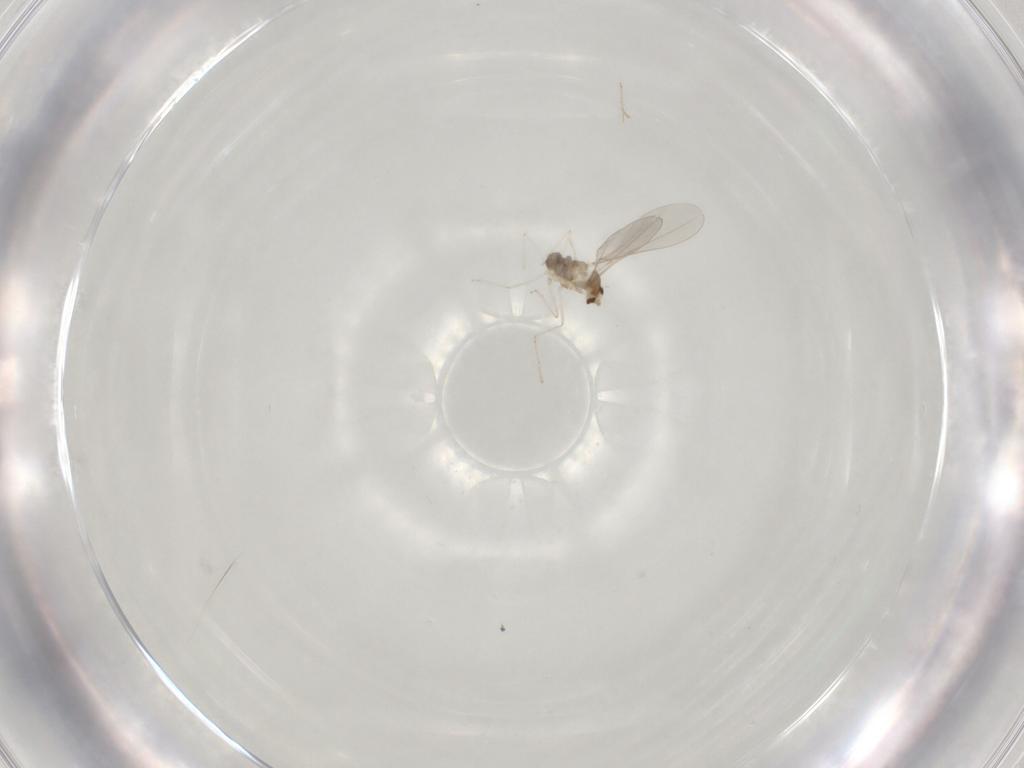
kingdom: Animalia
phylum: Arthropoda
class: Insecta
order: Diptera
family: Cecidomyiidae
